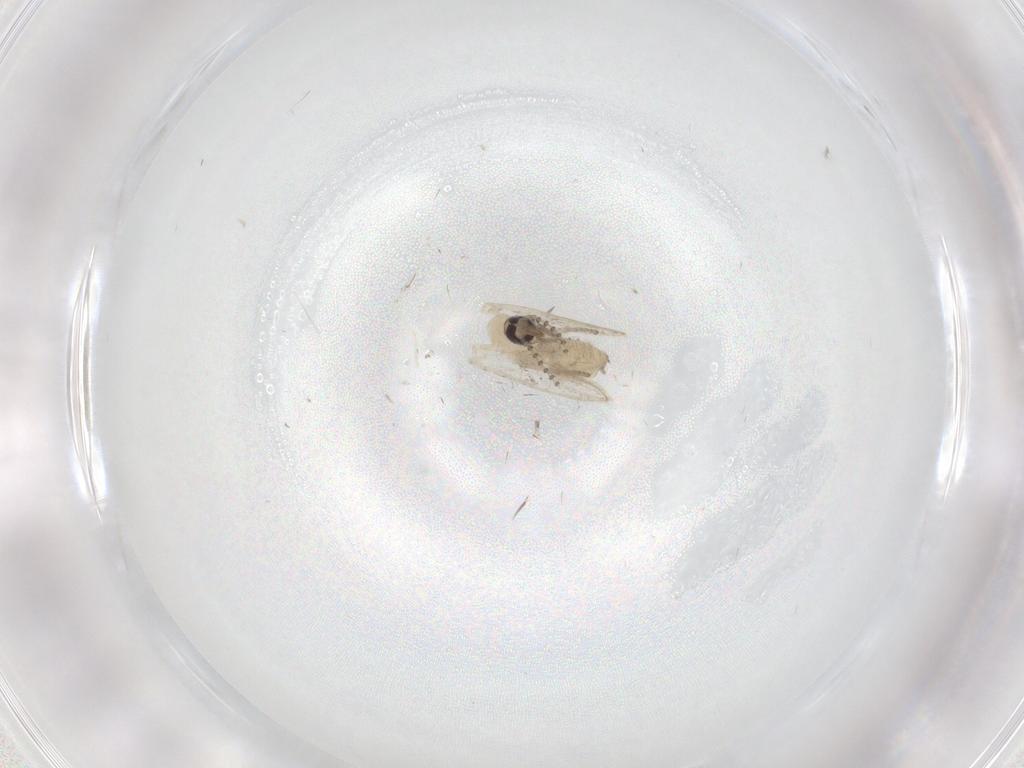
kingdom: Animalia
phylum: Arthropoda
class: Insecta
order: Diptera
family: Psychodidae
